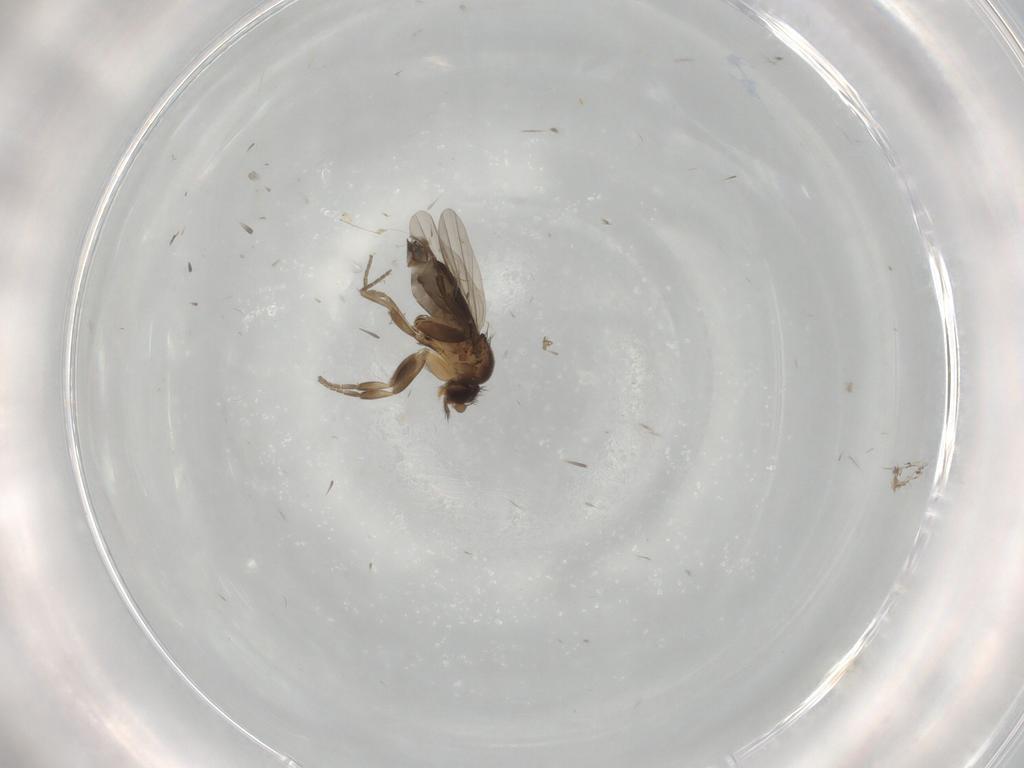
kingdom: Animalia
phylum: Arthropoda
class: Insecta
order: Diptera
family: Phoridae
